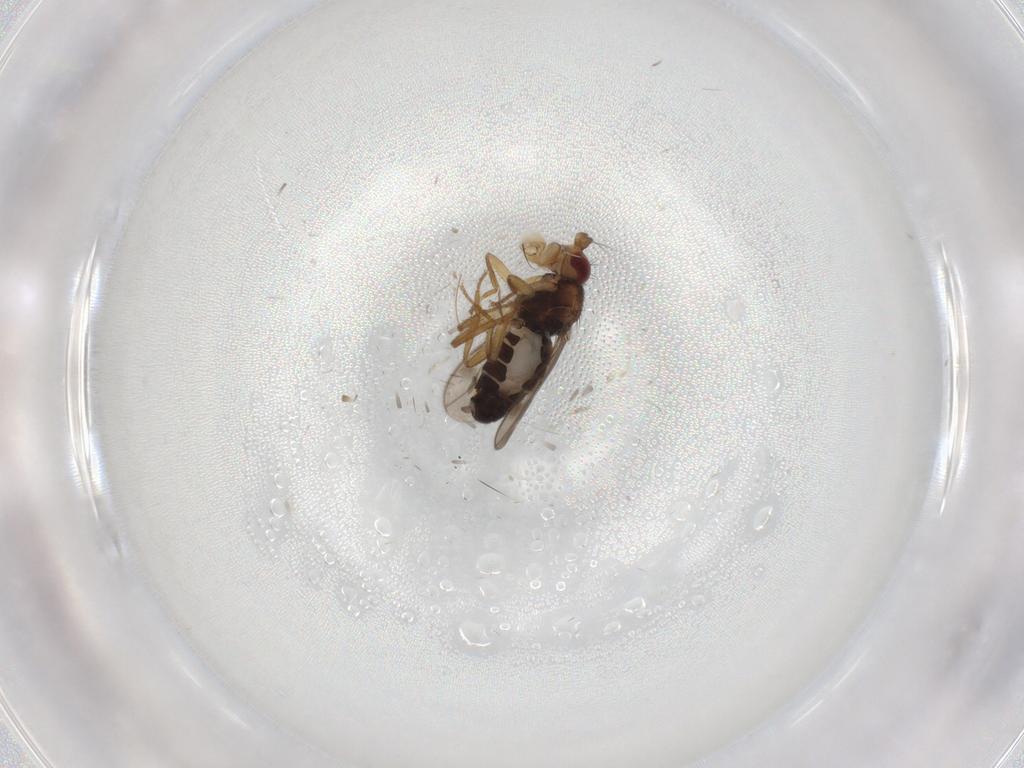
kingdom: Animalia
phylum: Arthropoda
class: Insecta
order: Diptera
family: Sphaeroceridae
